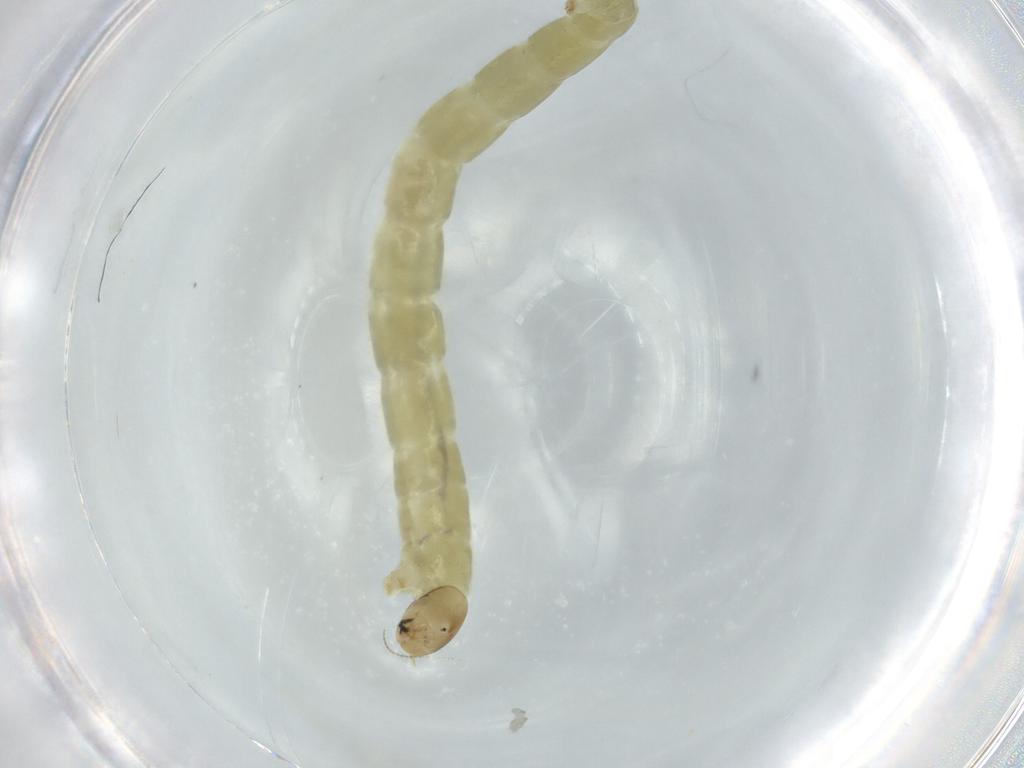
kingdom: Animalia
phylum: Arthropoda
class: Insecta
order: Diptera
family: Chironomidae
